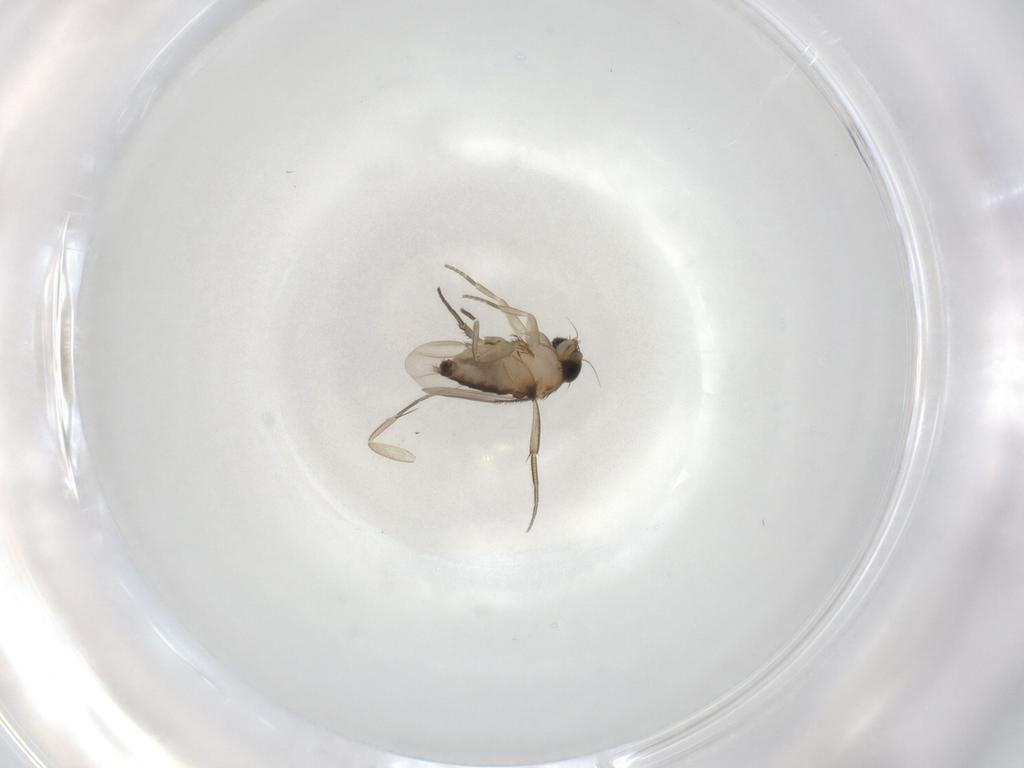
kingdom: Animalia
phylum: Arthropoda
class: Insecta
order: Diptera
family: Phoridae
